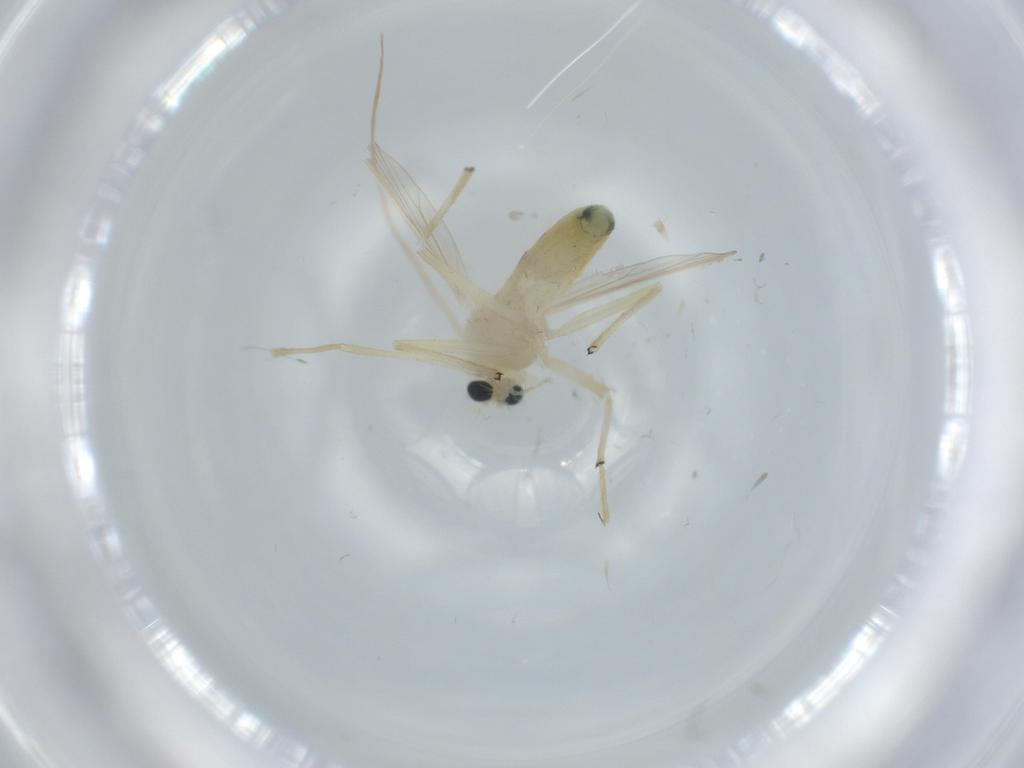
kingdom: Animalia
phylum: Arthropoda
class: Insecta
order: Diptera
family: Chironomidae
